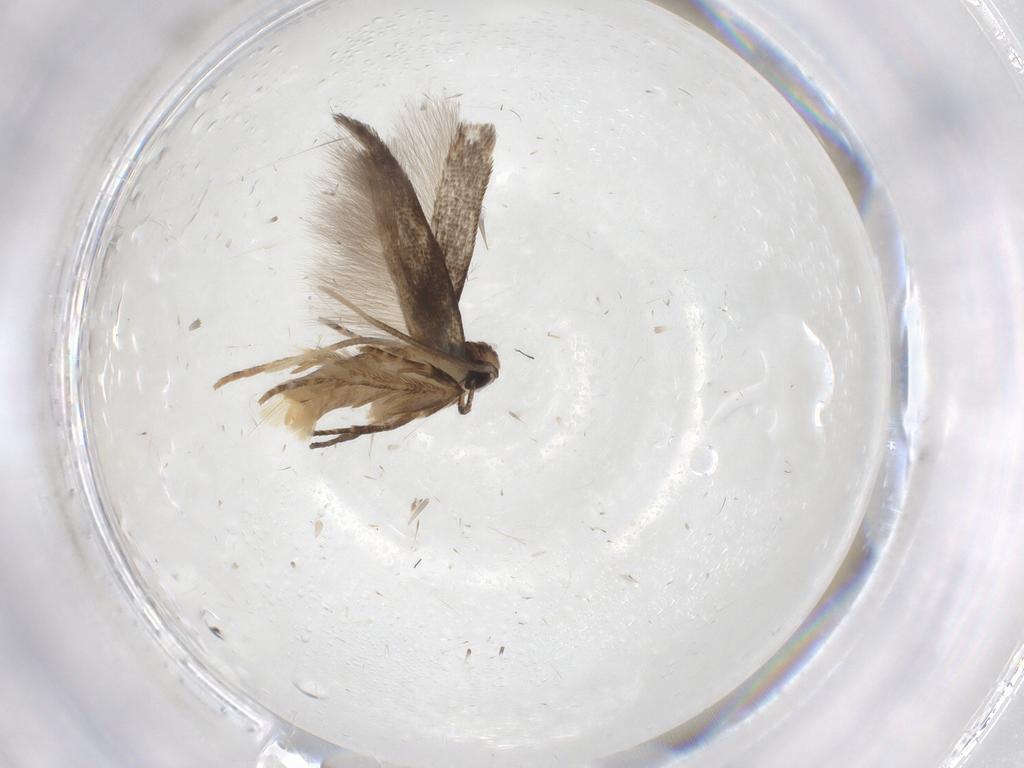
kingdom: Animalia
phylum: Arthropoda
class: Insecta
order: Lepidoptera
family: Cosmopterigidae
